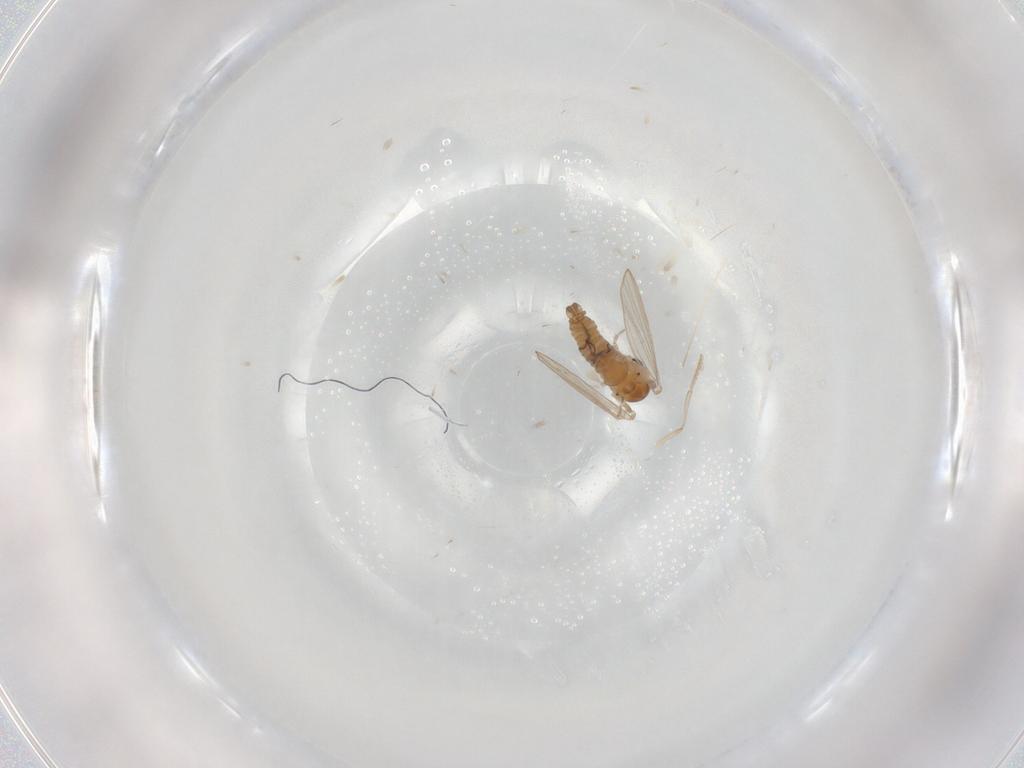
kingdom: Animalia
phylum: Arthropoda
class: Insecta
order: Diptera
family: Psychodidae
